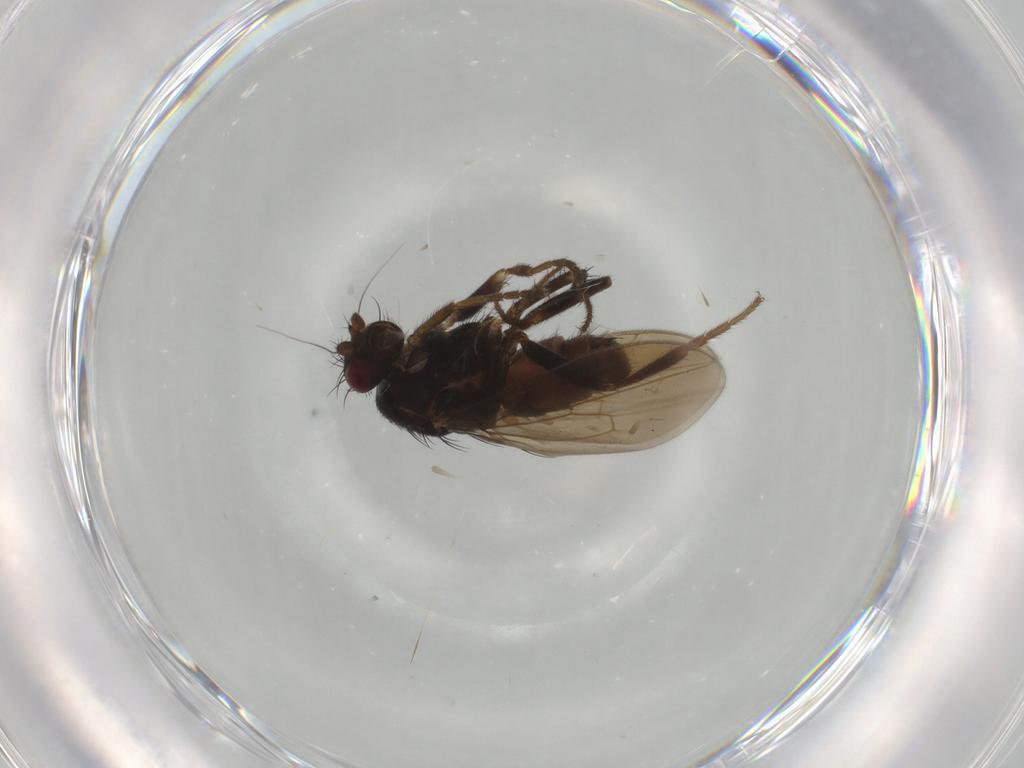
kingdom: Animalia
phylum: Arthropoda
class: Insecta
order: Diptera
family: Sphaeroceridae
